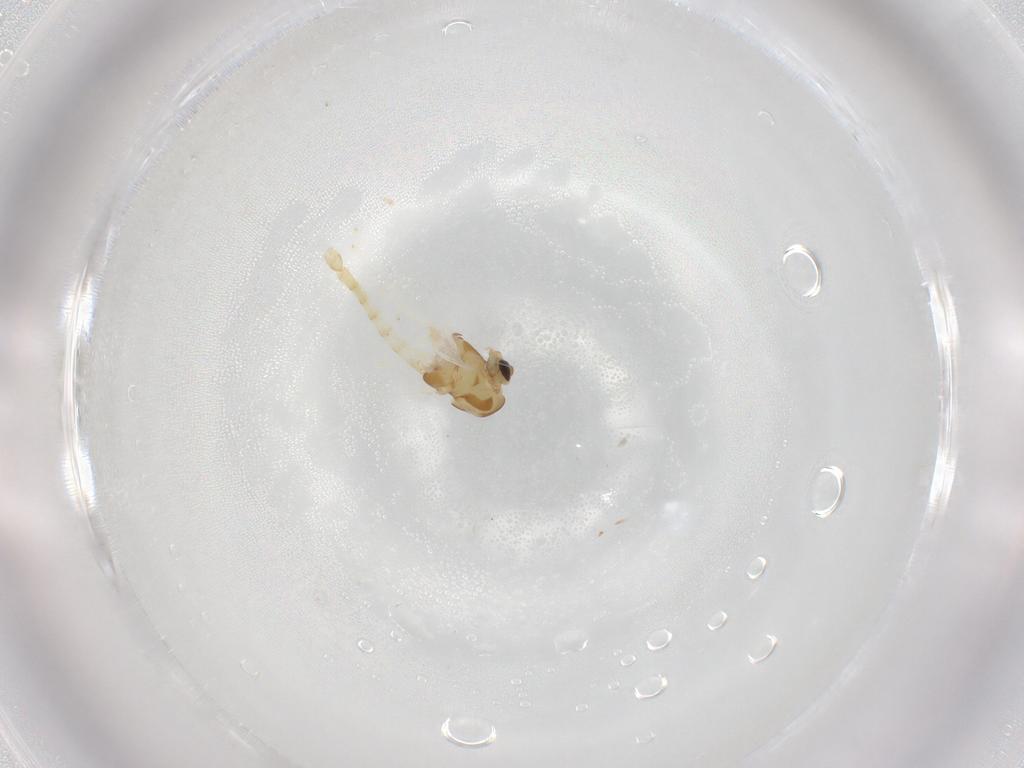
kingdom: Animalia
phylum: Arthropoda
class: Insecta
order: Diptera
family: Chironomidae
